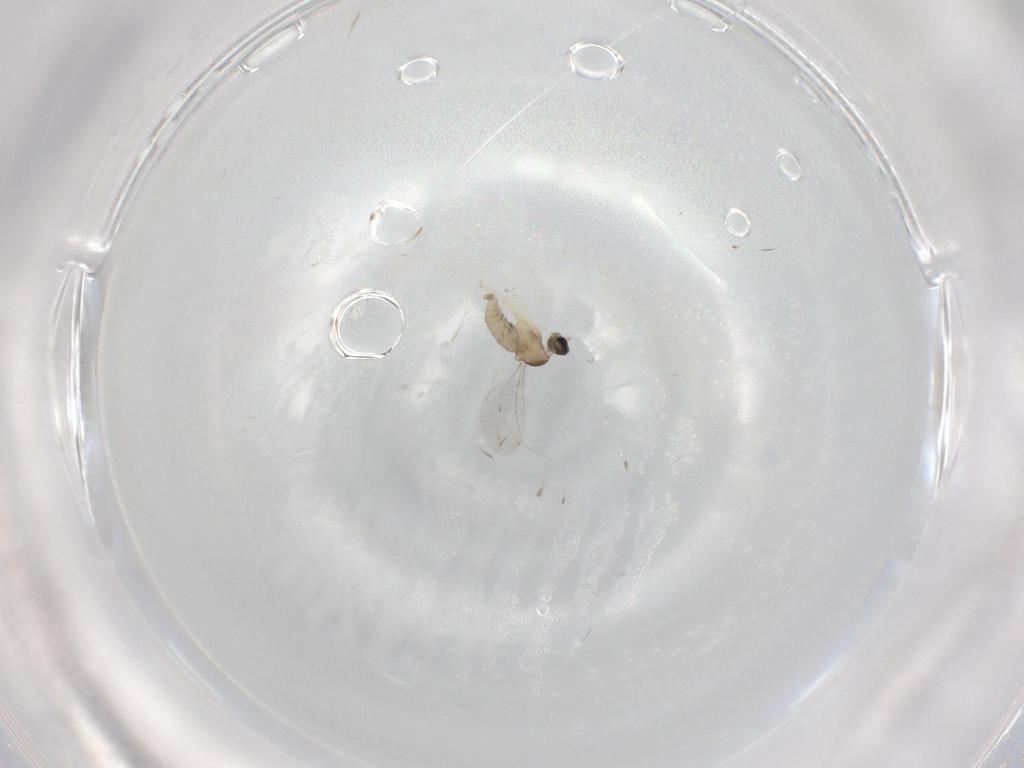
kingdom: Animalia
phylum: Arthropoda
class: Insecta
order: Diptera
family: Cecidomyiidae
